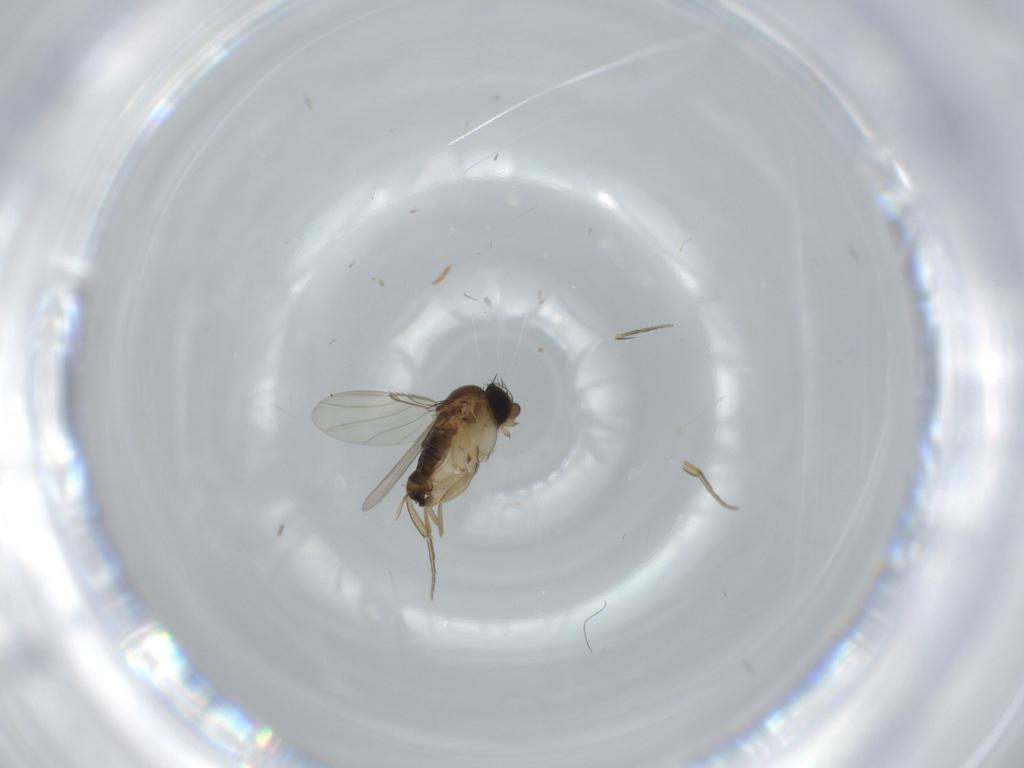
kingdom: Animalia
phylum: Arthropoda
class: Insecta
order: Diptera
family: Phoridae
